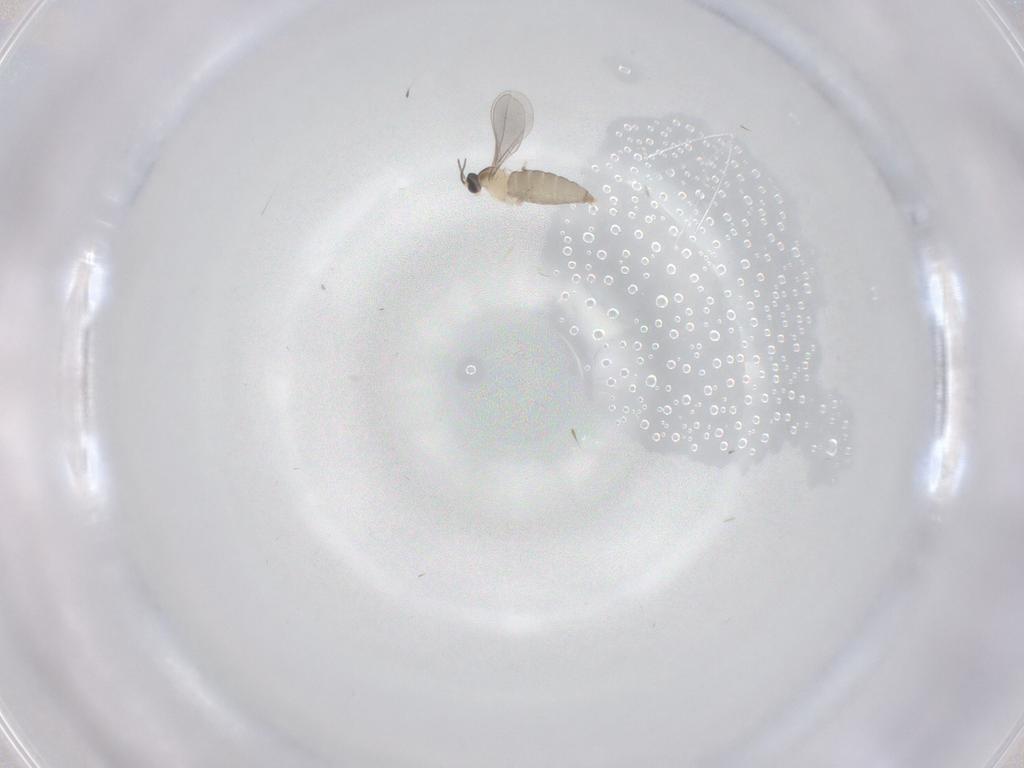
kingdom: Animalia
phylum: Arthropoda
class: Insecta
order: Diptera
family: Cecidomyiidae
